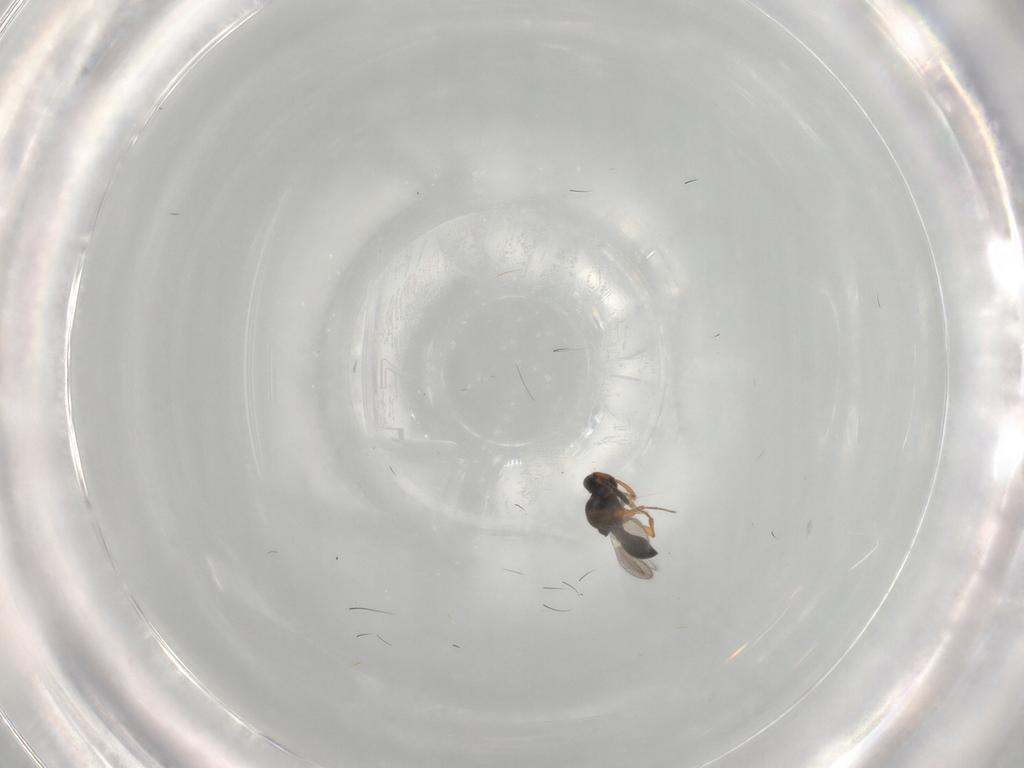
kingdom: Animalia
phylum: Arthropoda
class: Insecta
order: Hymenoptera
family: Platygastridae
